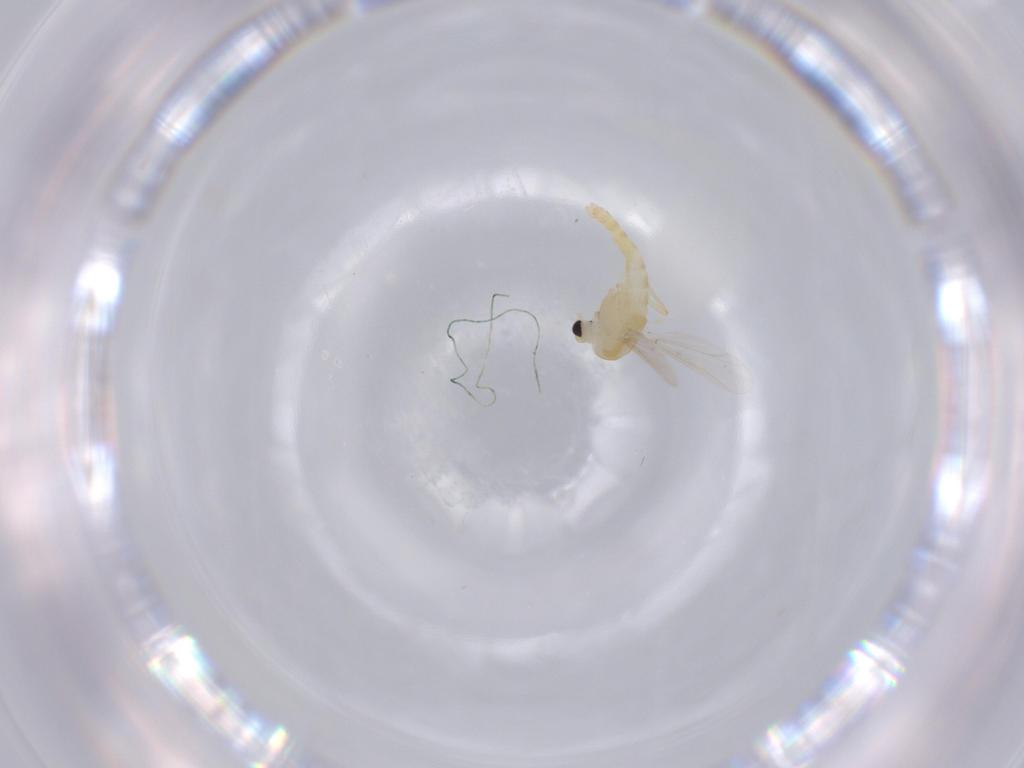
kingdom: Animalia
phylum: Arthropoda
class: Insecta
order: Diptera
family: Chironomidae
